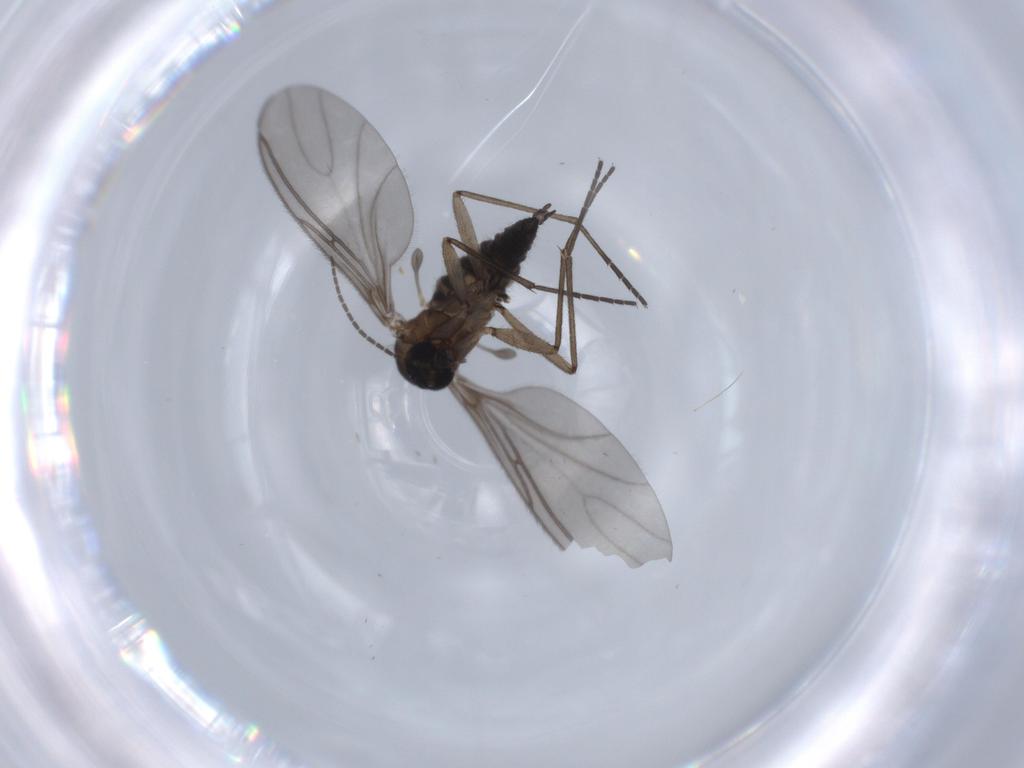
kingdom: Animalia
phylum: Arthropoda
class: Insecta
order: Diptera
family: Sciaridae
